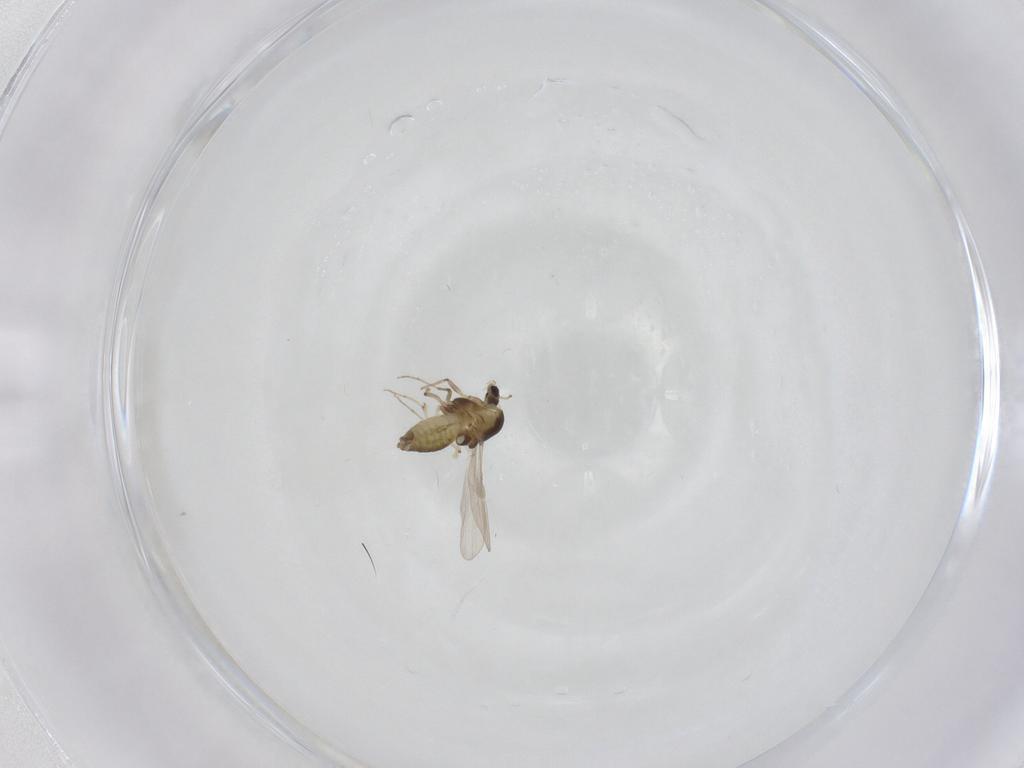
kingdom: Animalia
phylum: Arthropoda
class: Insecta
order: Diptera
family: Chironomidae
